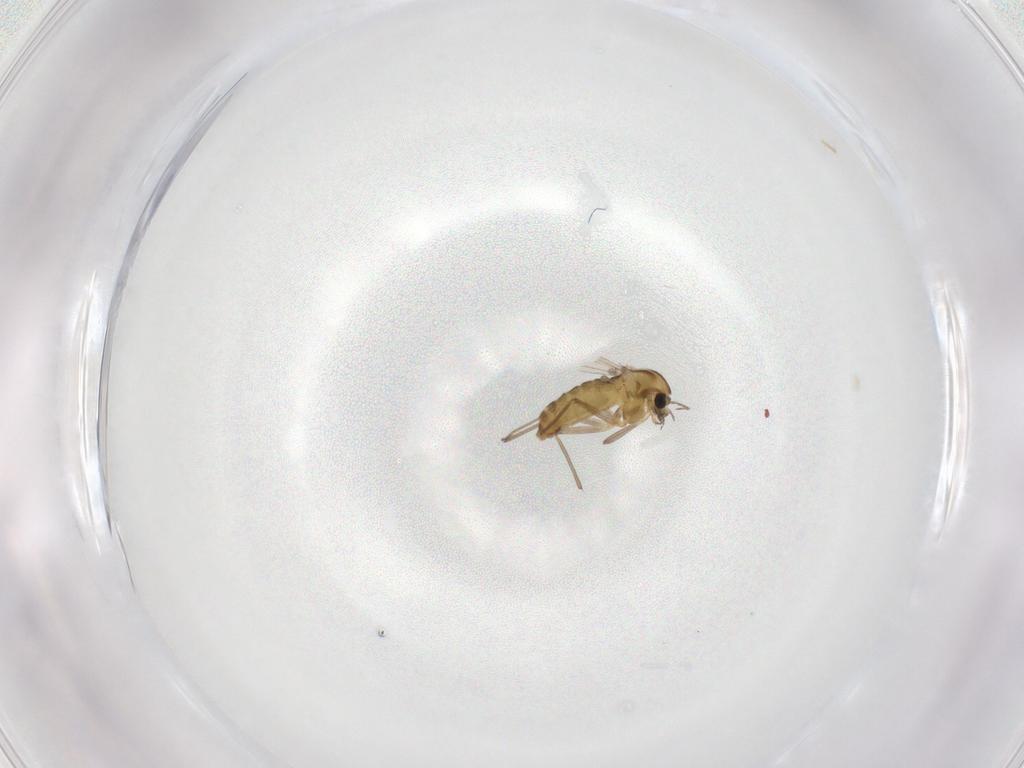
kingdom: Animalia
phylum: Arthropoda
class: Insecta
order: Diptera
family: Chironomidae
